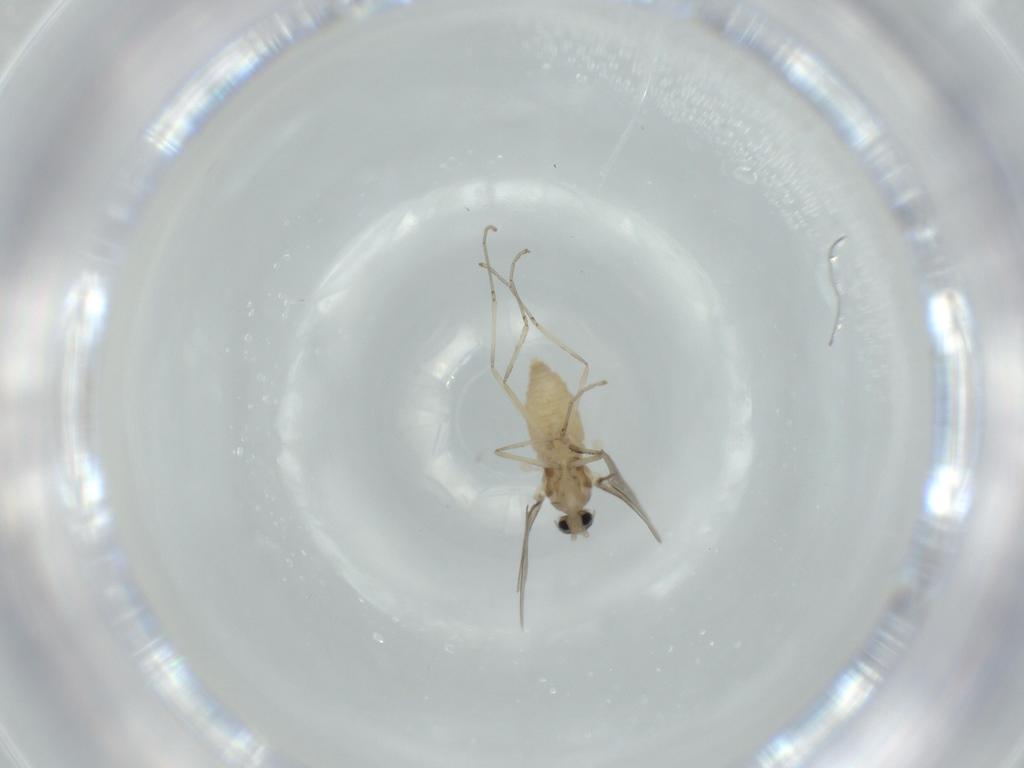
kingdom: Animalia
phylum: Arthropoda
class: Insecta
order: Diptera
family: Cecidomyiidae
